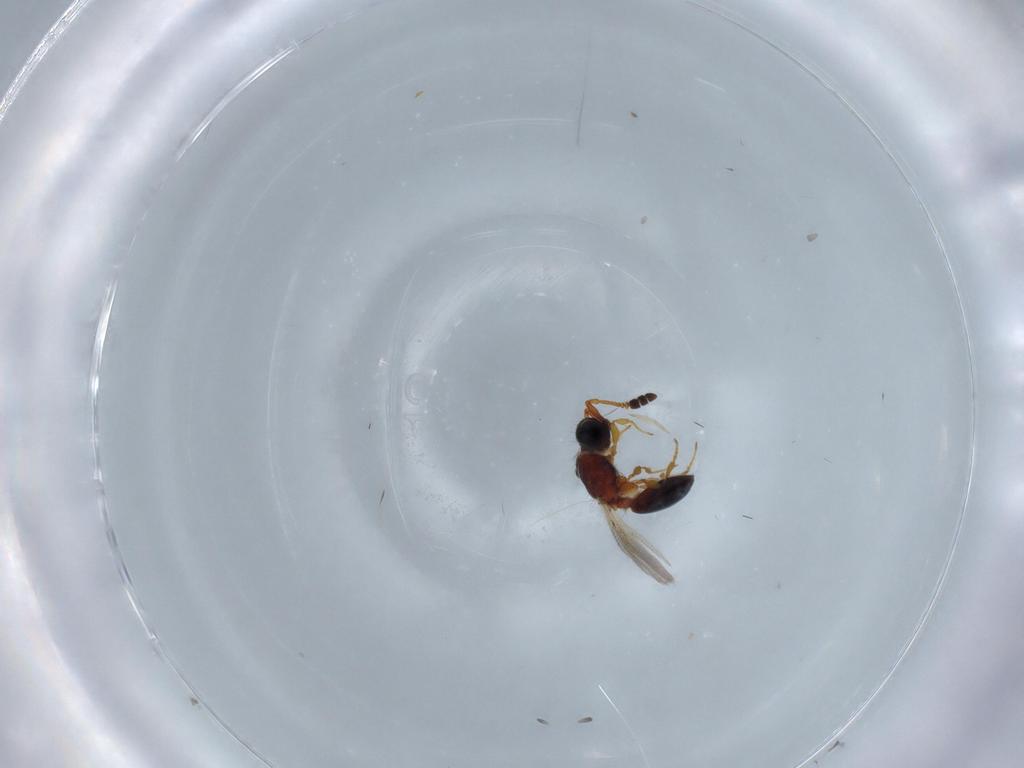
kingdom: Animalia
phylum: Arthropoda
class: Insecta
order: Hymenoptera
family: Diapriidae
